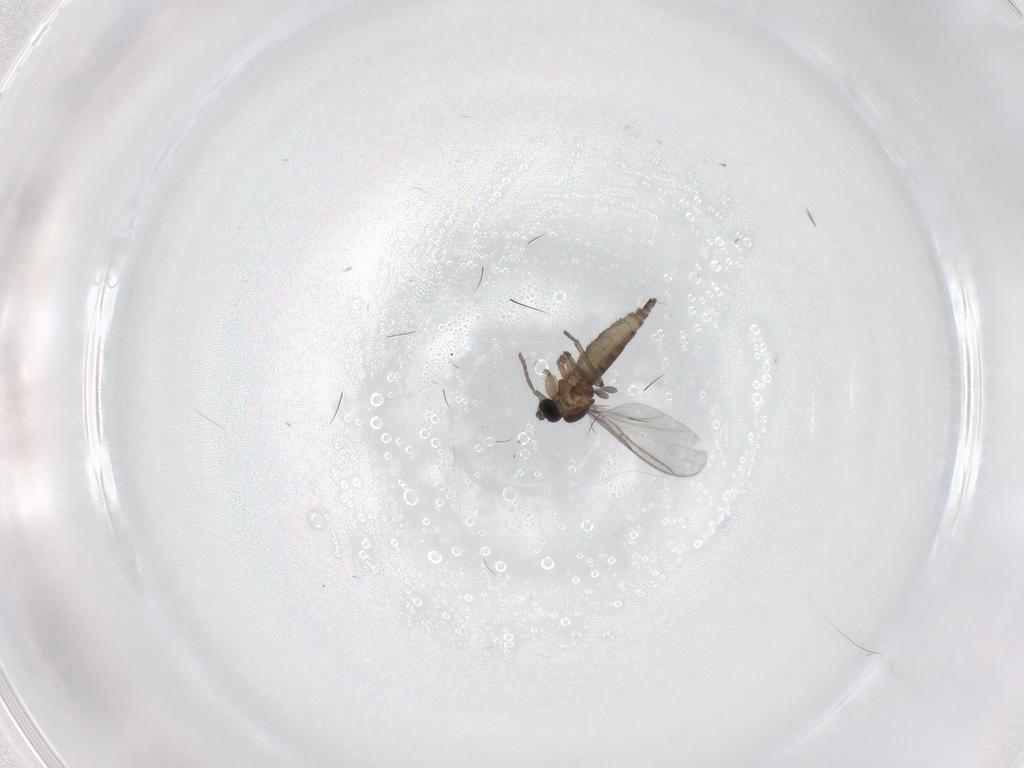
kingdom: Animalia
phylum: Arthropoda
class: Insecta
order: Diptera
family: Sciaridae
